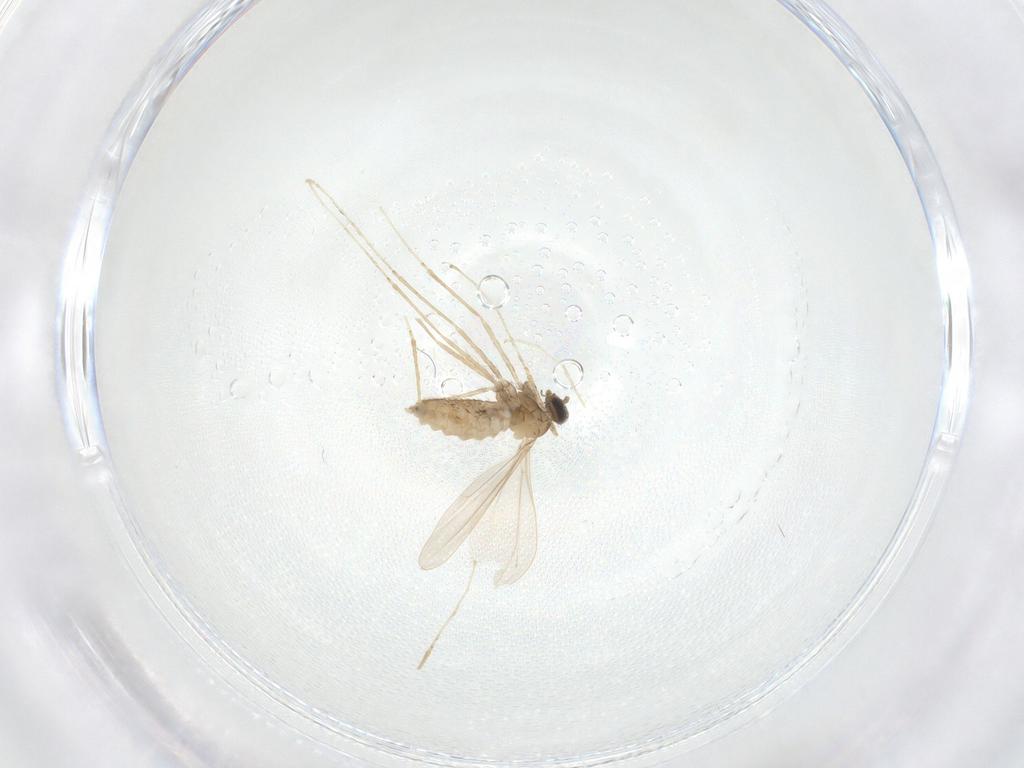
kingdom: Animalia
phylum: Arthropoda
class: Insecta
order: Diptera
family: Cecidomyiidae
